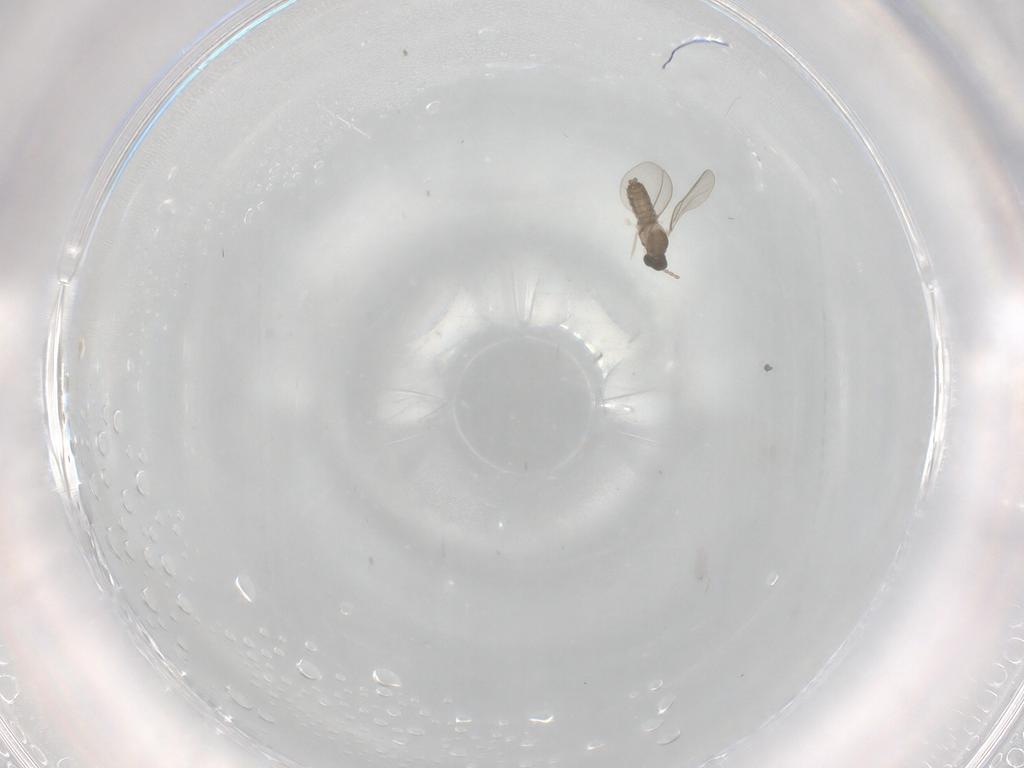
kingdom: Animalia
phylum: Arthropoda
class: Insecta
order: Diptera
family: Cecidomyiidae
